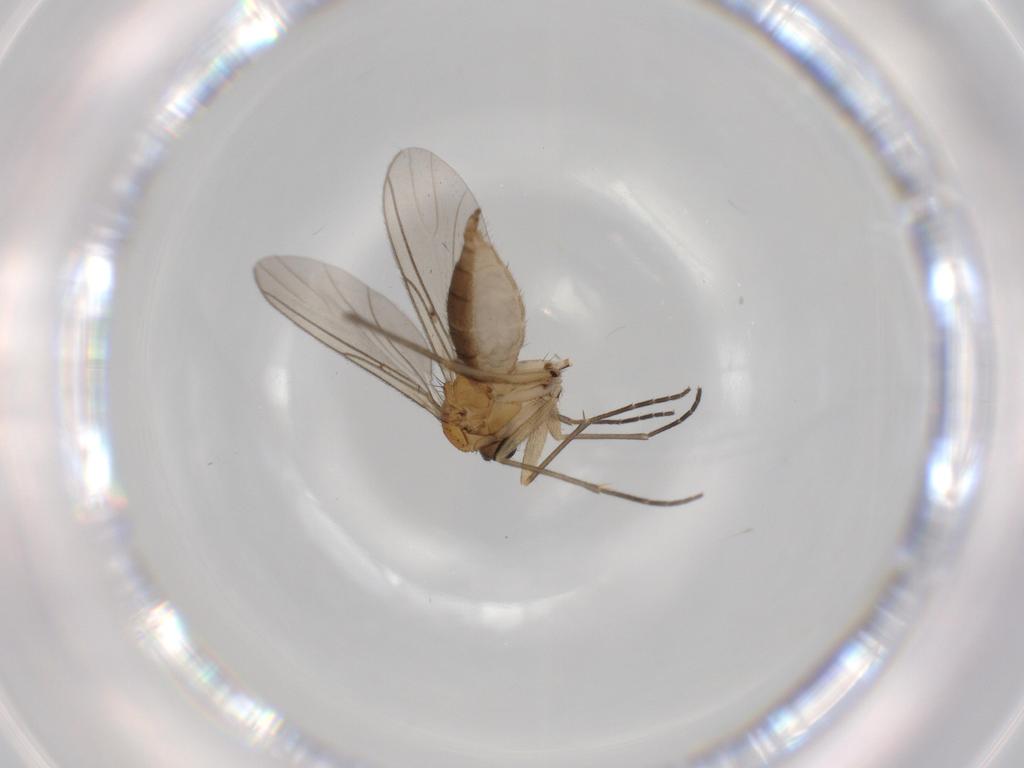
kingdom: Animalia
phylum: Arthropoda
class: Insecta
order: Diptera
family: Sciaridae
